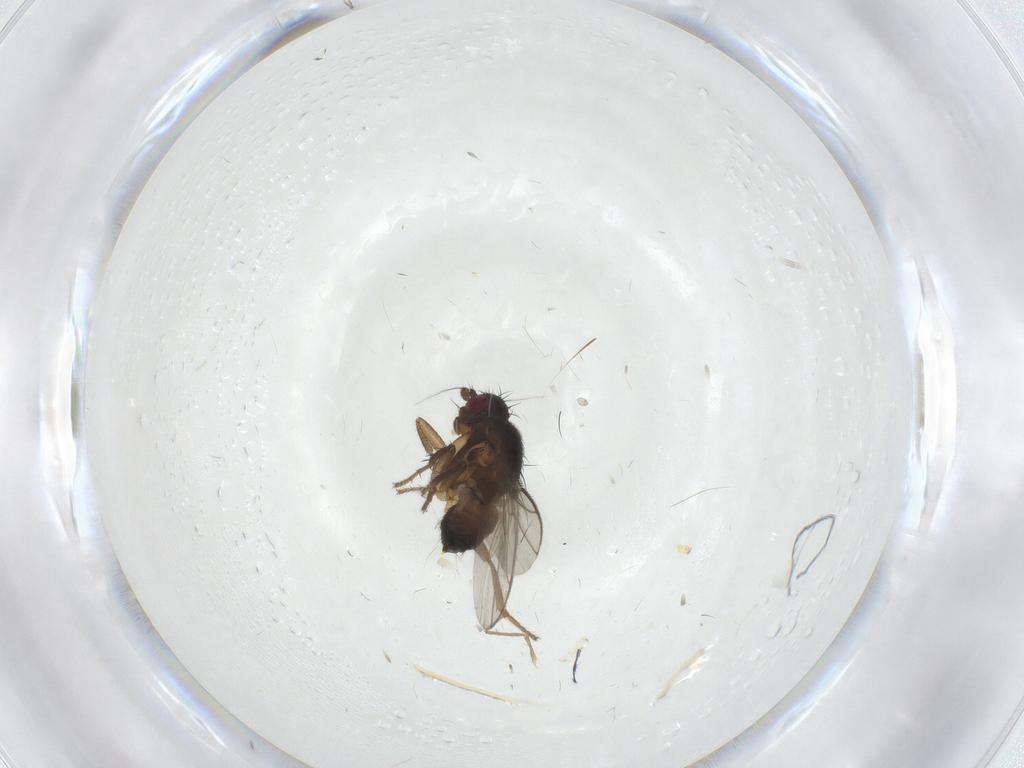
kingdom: Animalia
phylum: Arthropoda
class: Insecta
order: Diptera
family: Sphaeroceridae
